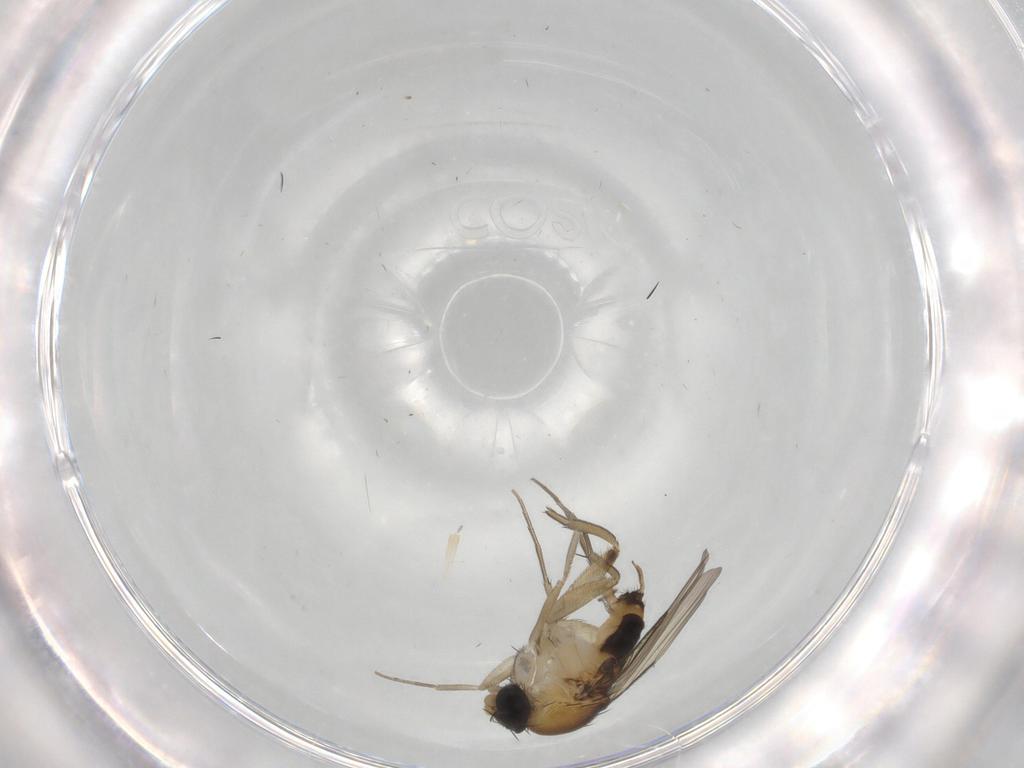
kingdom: Animalia
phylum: Arthropoda
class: Insecta
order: Diptera
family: Phoridae
